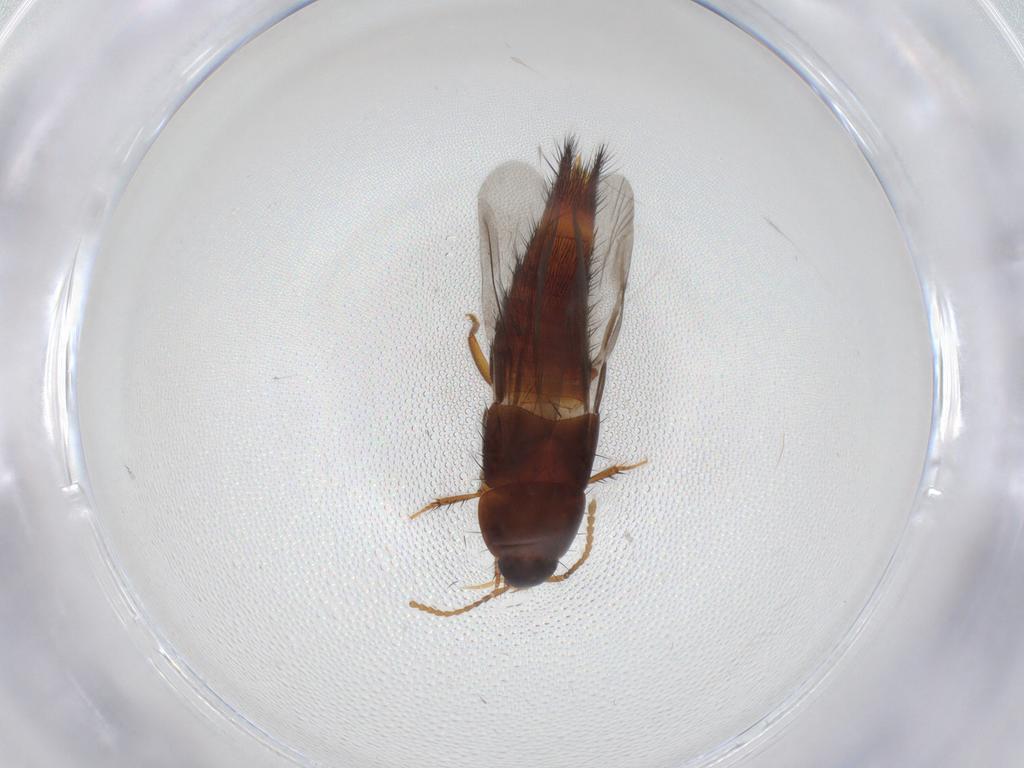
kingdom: Animalia
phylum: Arthropoda
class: Insecta
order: Coleoptera
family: Staphylinidae
